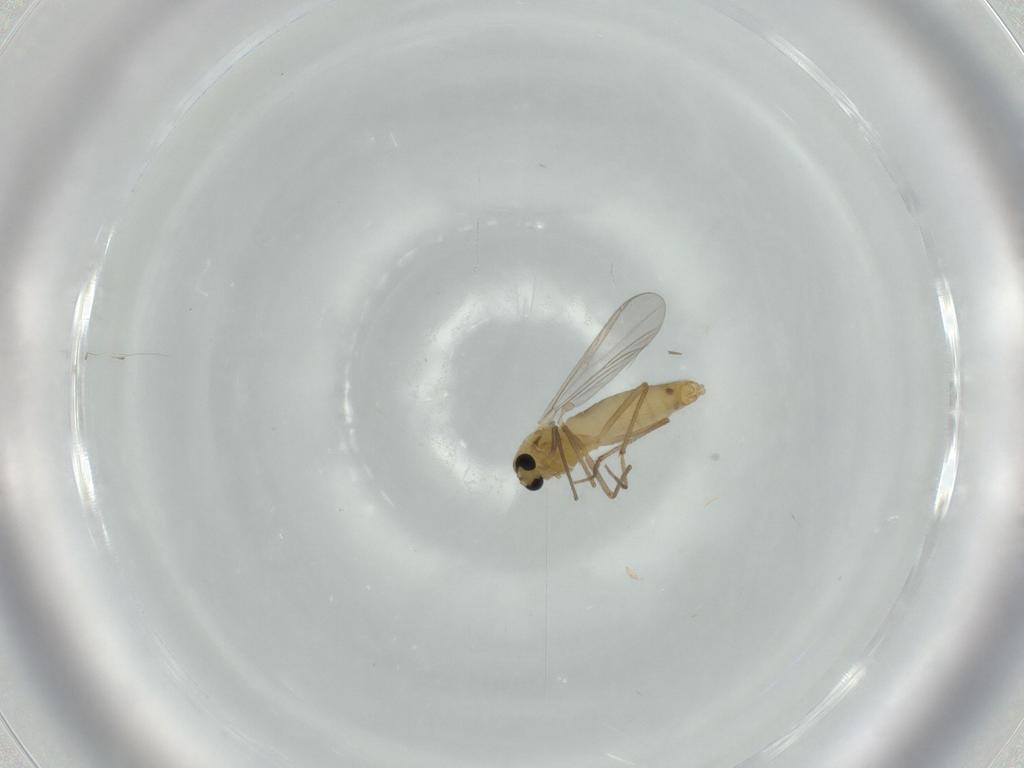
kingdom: Animalia
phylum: Arthropoda
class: Insecta
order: Diptera
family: Chironomidae
